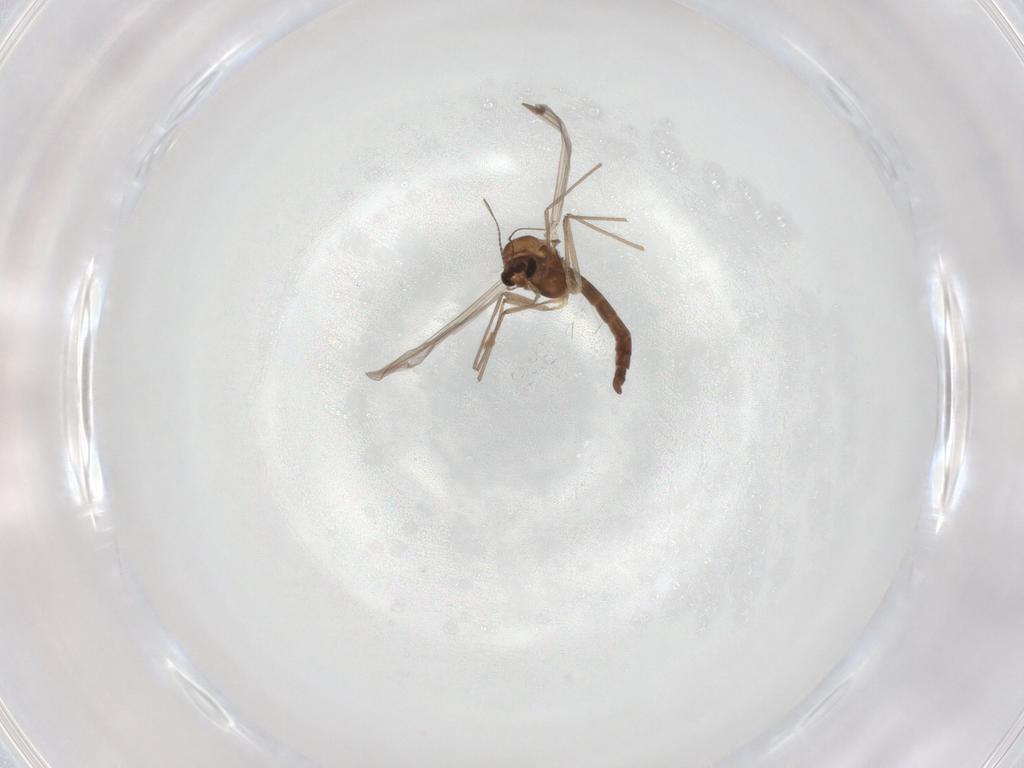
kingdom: Animalia
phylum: Arthropoda
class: Insecta
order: Diptera
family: Chironomidae
